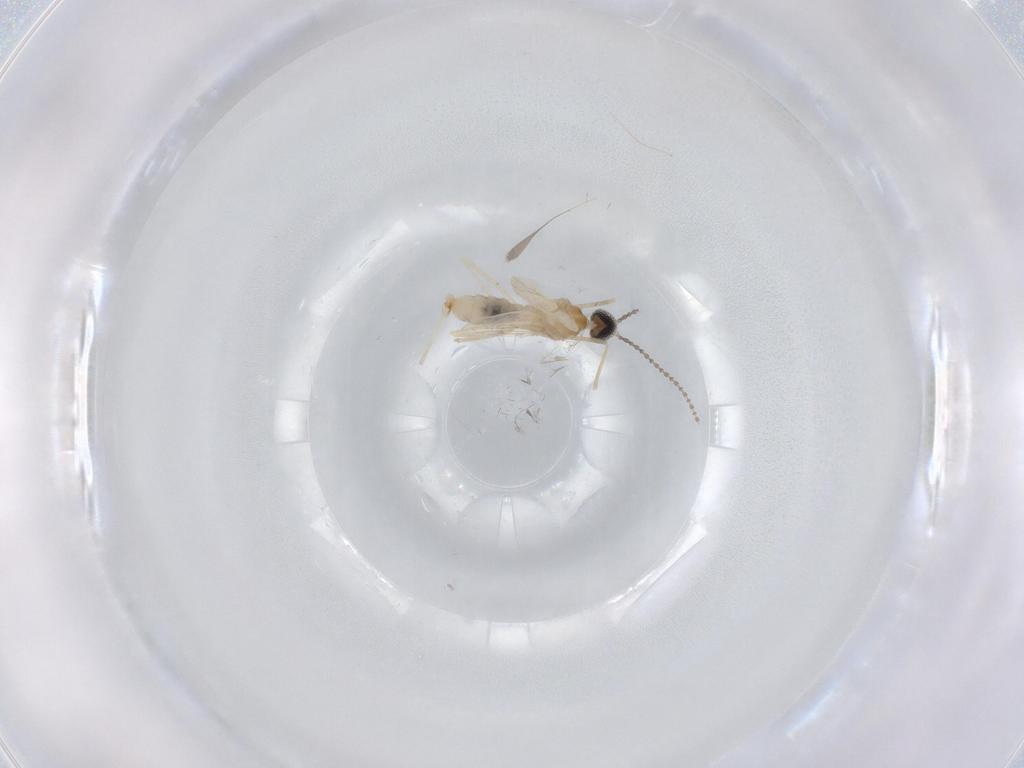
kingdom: Animalia
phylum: Arthropoda
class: Insecta
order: Diptera
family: Cecidomyiidae
